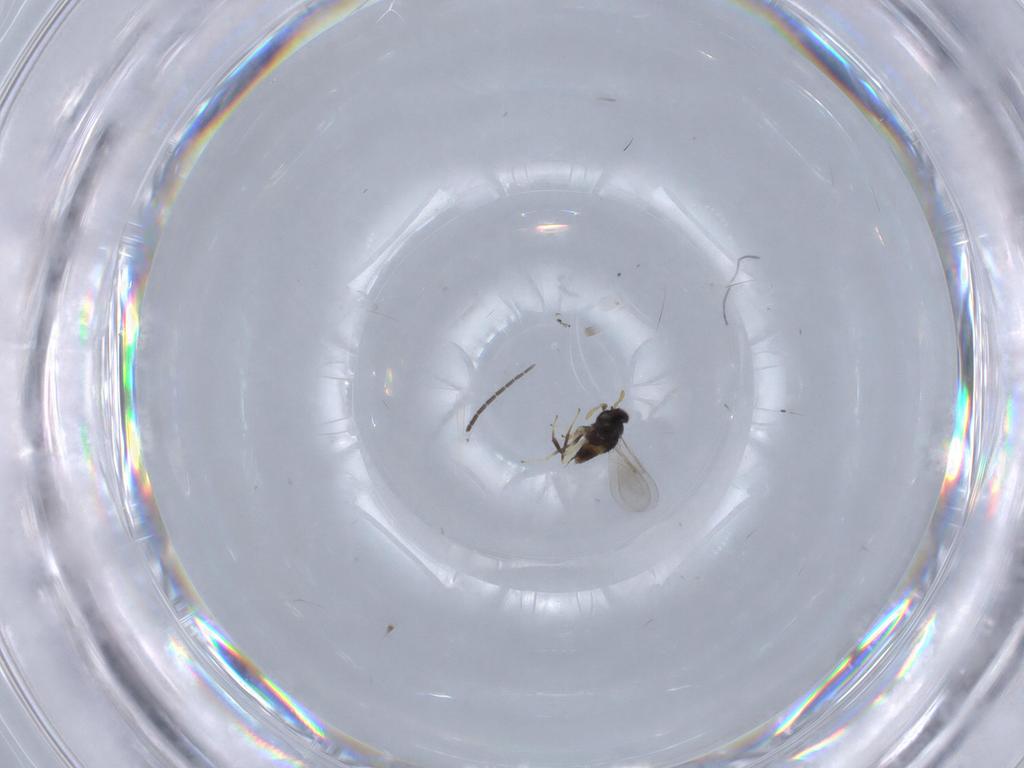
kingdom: Animalia
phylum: Arthropoda
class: Insecta
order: Hymenoptera
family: Aphelinidae
